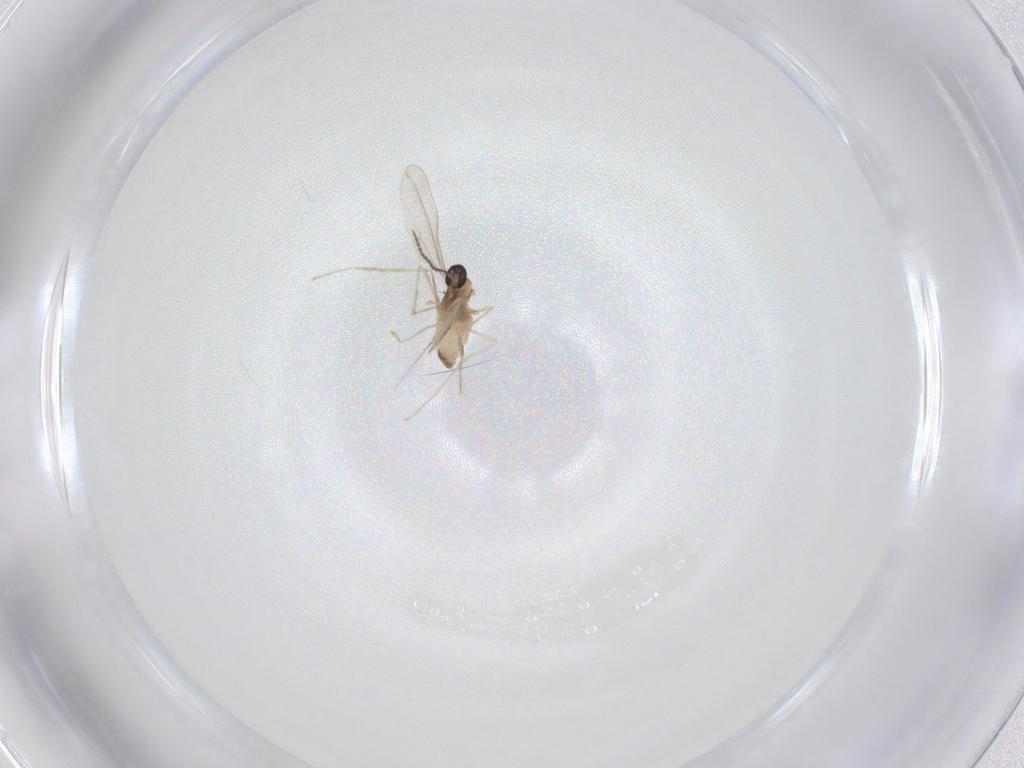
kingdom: Animalia
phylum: Arthropoda
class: Insecta
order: Diptera
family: Cecidomyiidae
